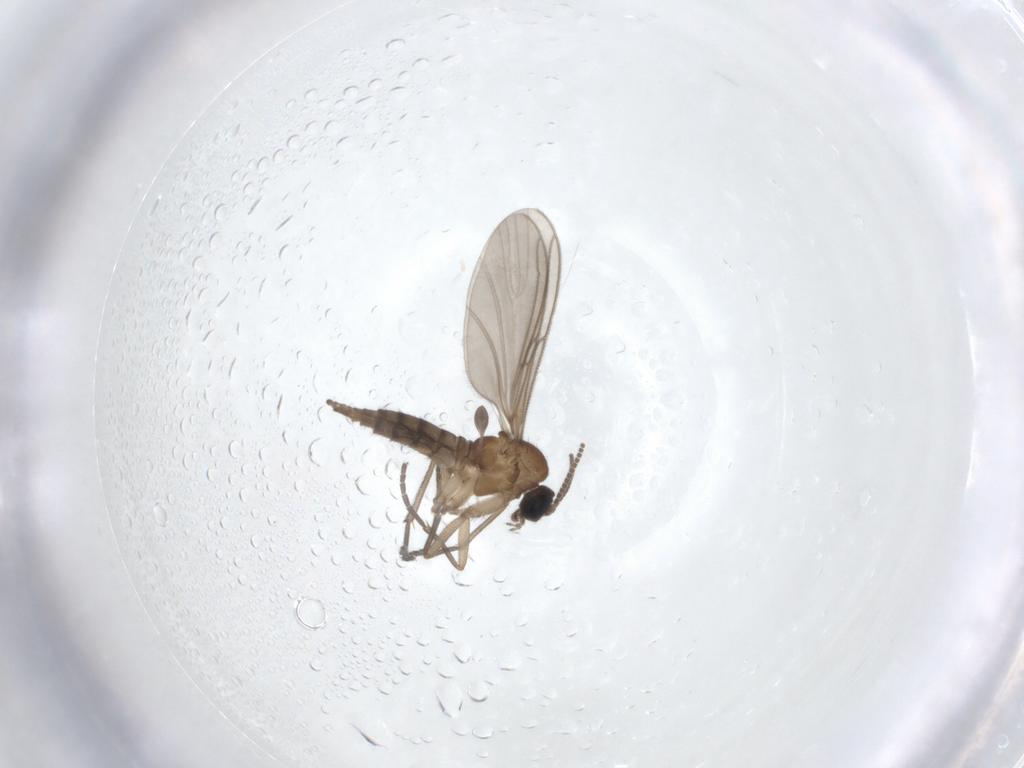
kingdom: Animalia
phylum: Arthropoda
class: Insecta
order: Diptera
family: Sciaridae
